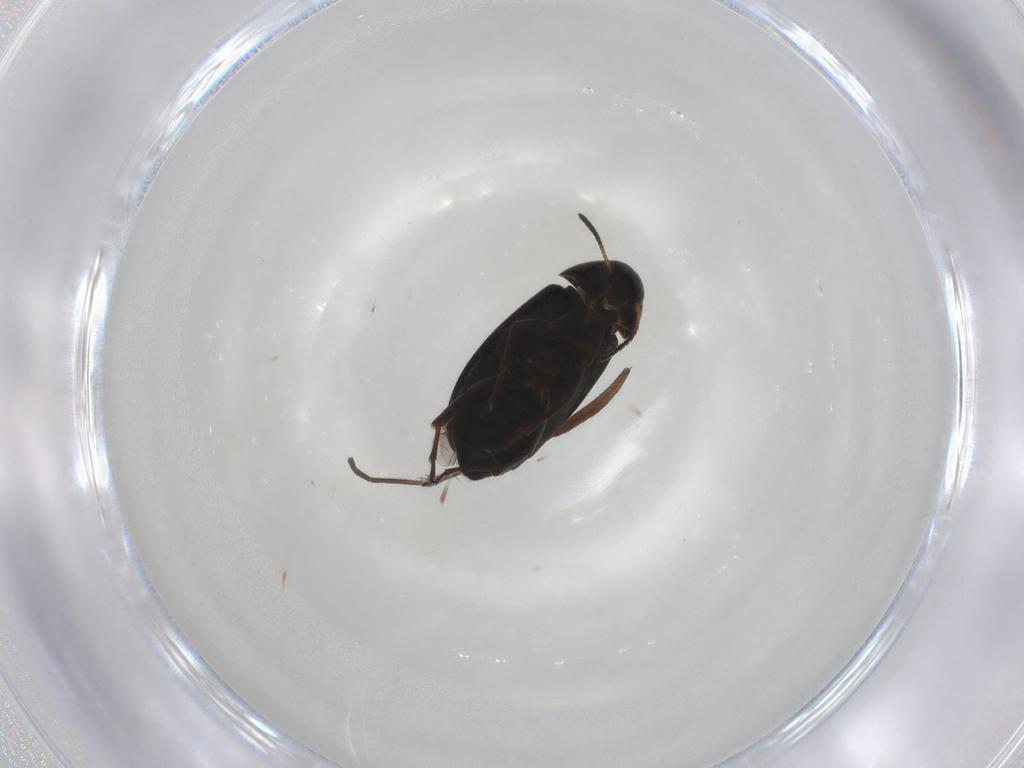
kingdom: Animalia
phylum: Arthropoda
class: Insecta
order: Coleoptera
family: Scraptiidae
